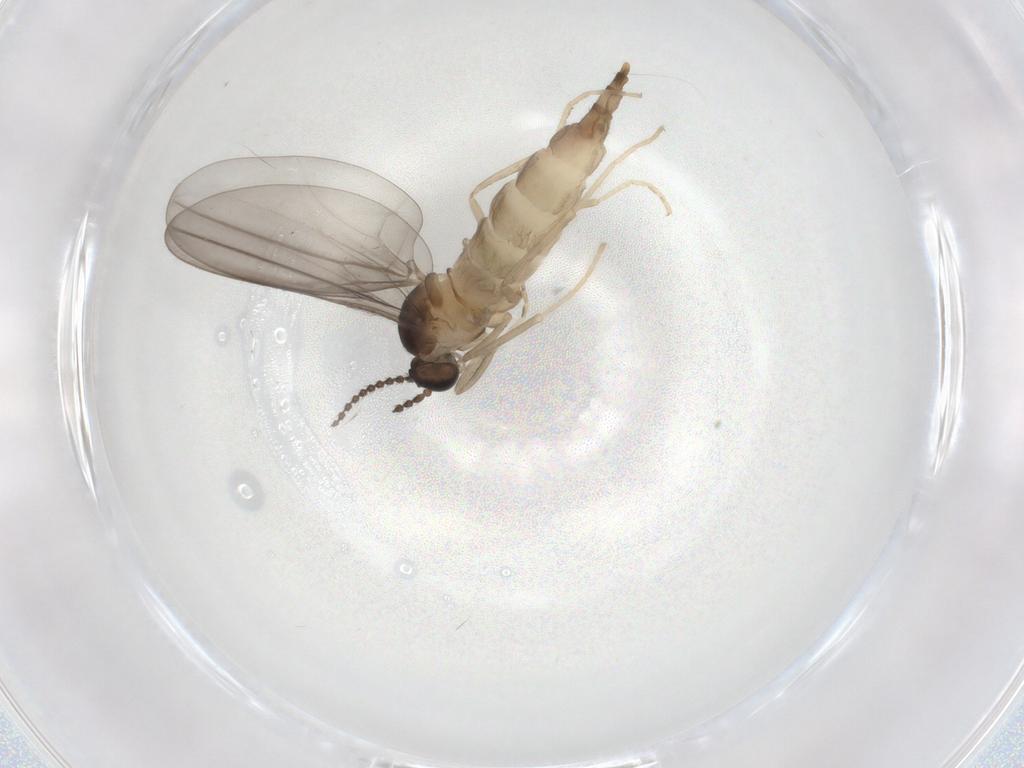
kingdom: Animalia
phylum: Arthropoda
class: Insecta
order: Diptera
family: Cecidomyiidae
